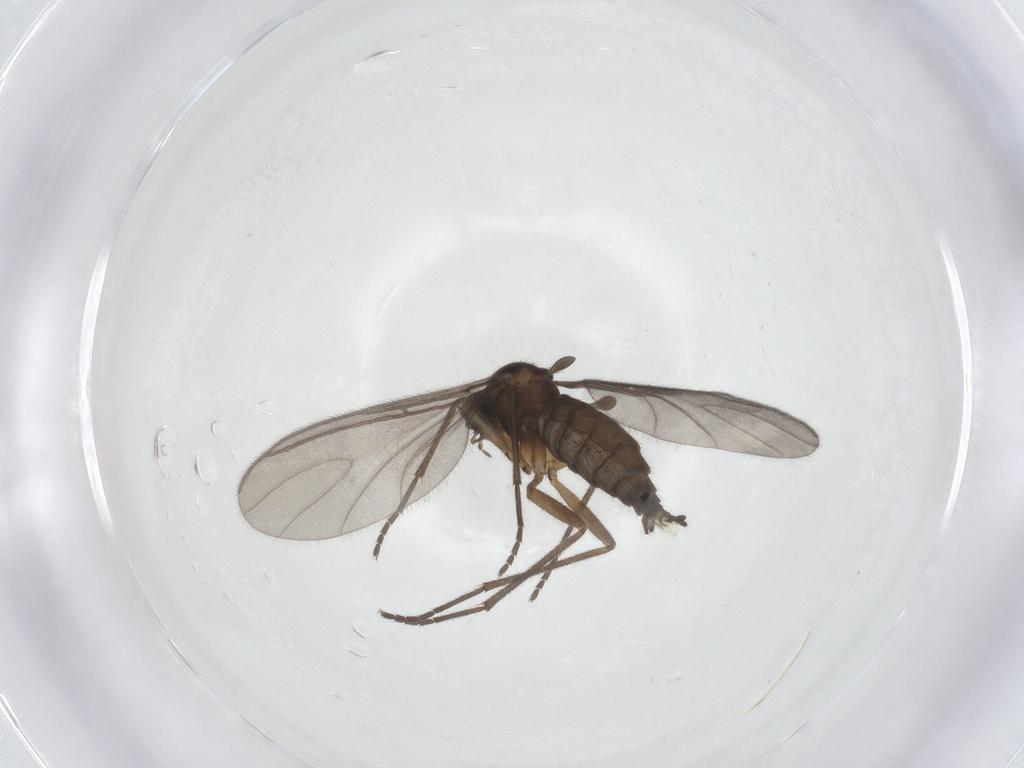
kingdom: Animalia
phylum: Arthropoda
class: Insecta
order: Diptera
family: Sciaridae
